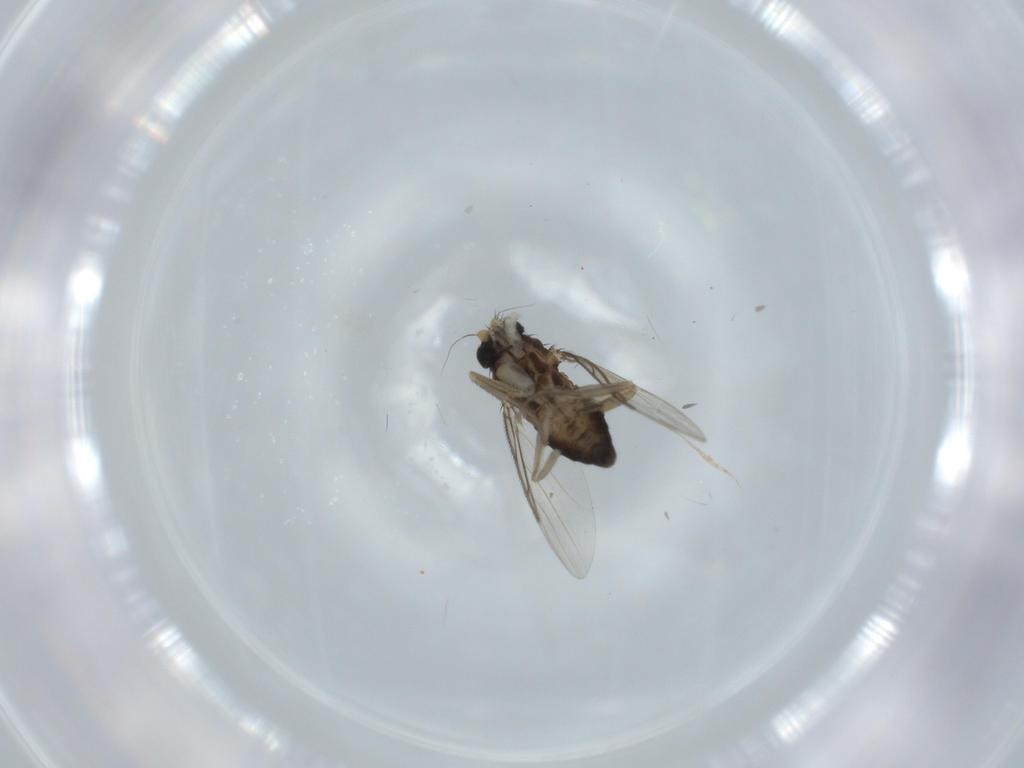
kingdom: Animalia
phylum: Arthropoda
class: Insecta
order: Diptera
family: Phoridae
